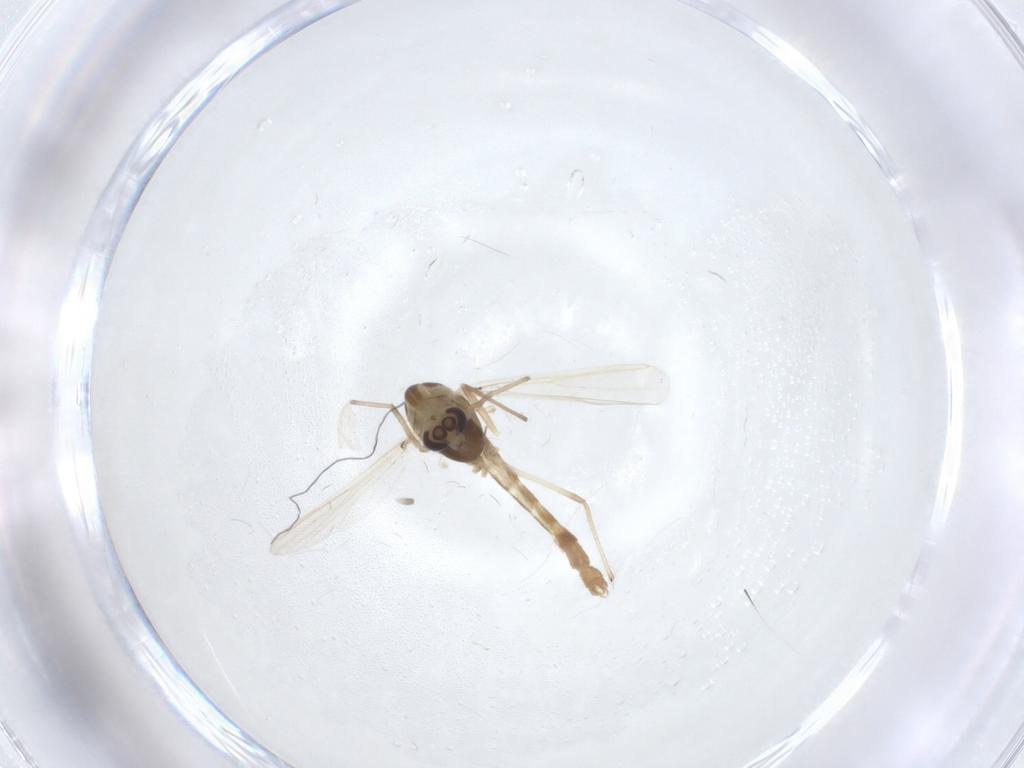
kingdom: Animalia
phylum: Arthropoda
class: Insecta
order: Diptera
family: Chironomidae
